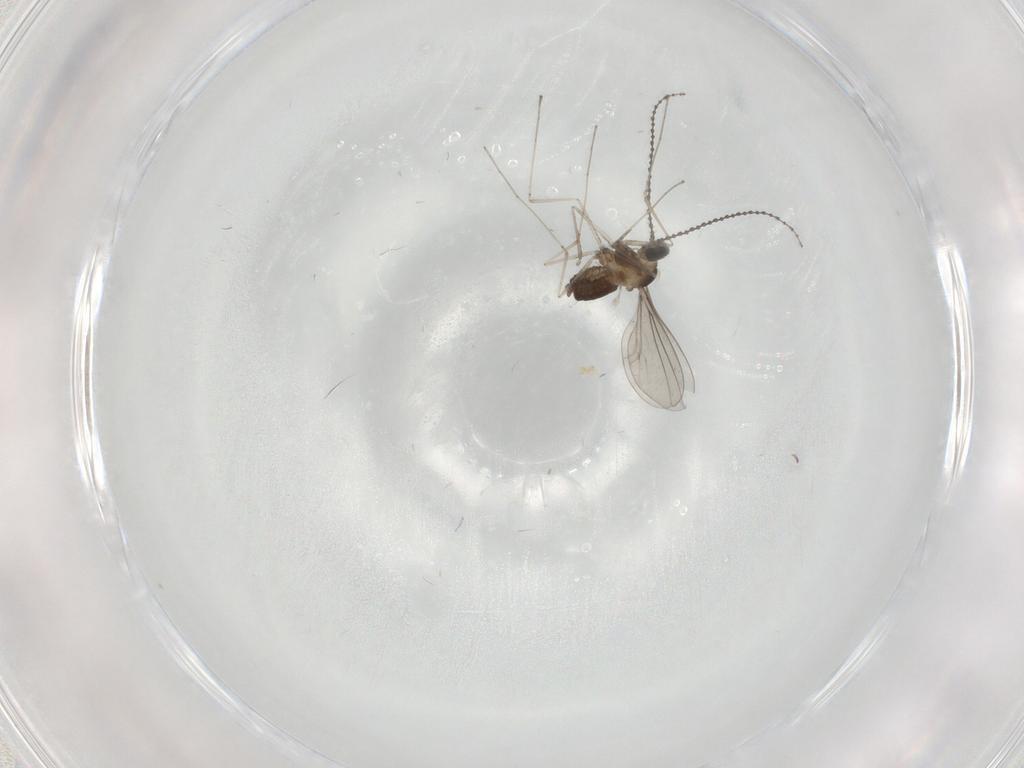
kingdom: Animalia
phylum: Arthropoda
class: Insecta
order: Diptera
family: Cecidomyiidae
